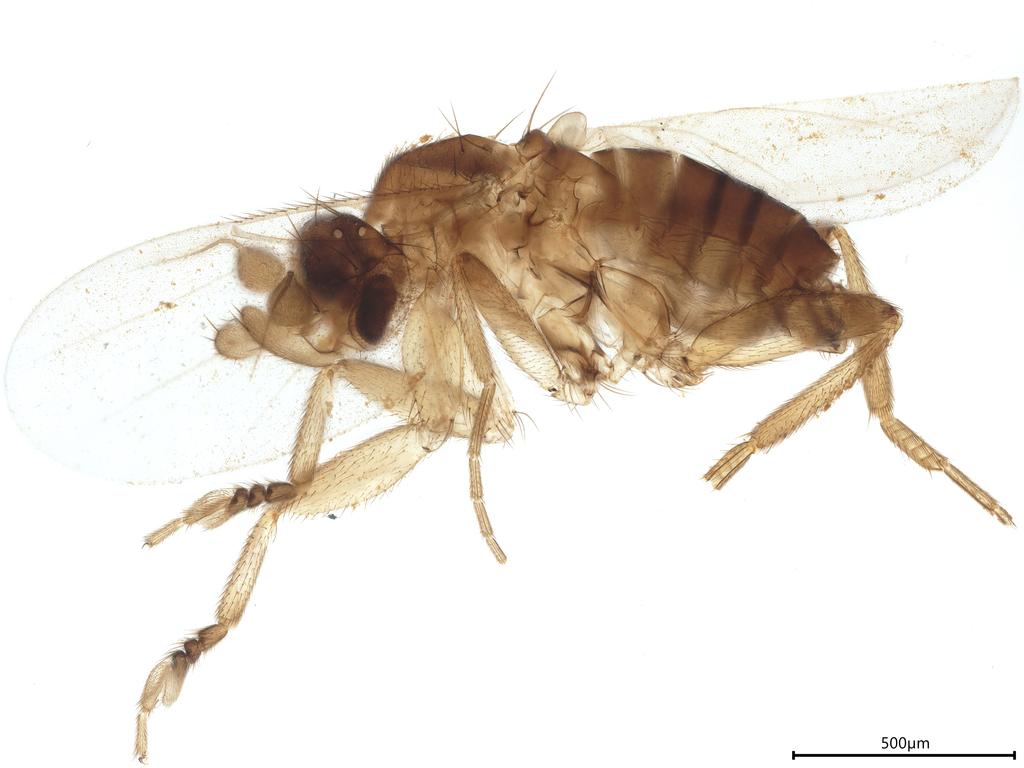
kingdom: Animalia
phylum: Arthropoda
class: Insecta
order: Diptera
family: Phoridae
